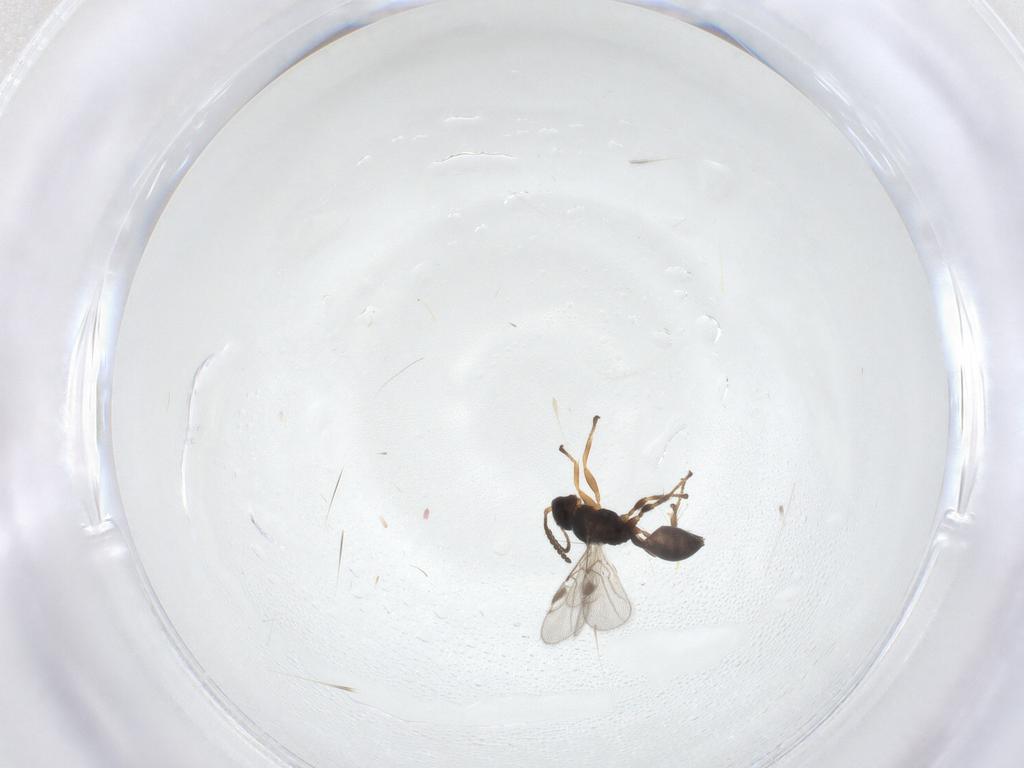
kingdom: Animalia
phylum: Arthropoda
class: Insecta
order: Hymenoptera
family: Braconidae
